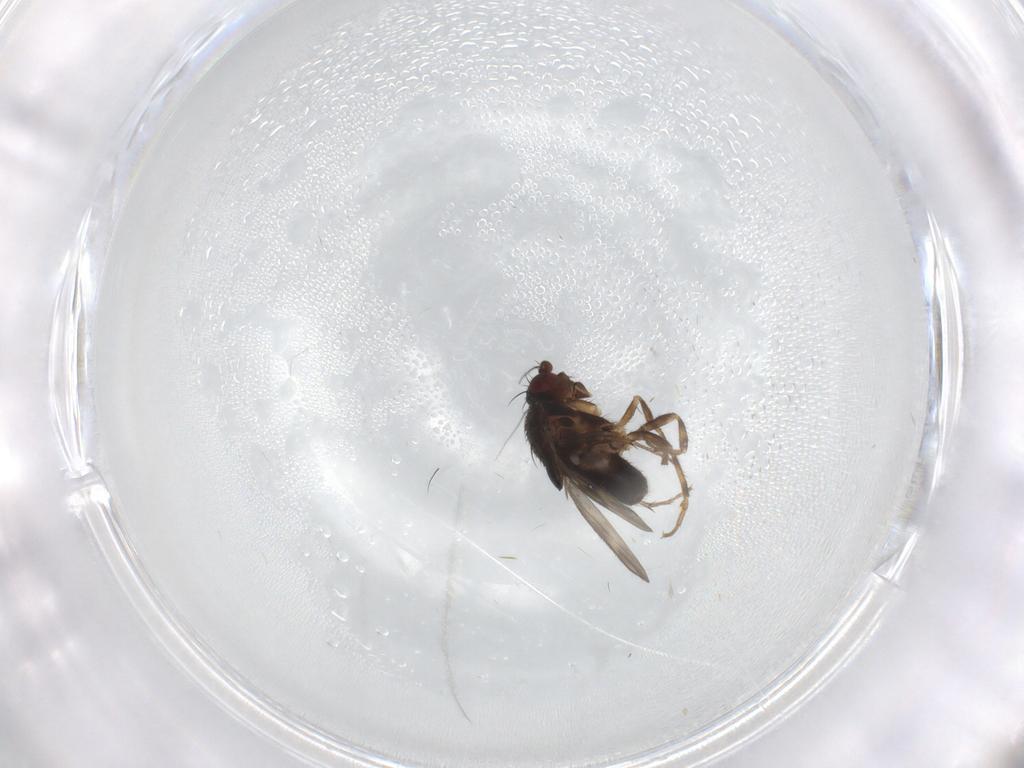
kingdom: Animalia
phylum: Arthropoda
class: Insecta
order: Diptera
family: Sphaeroceridae
